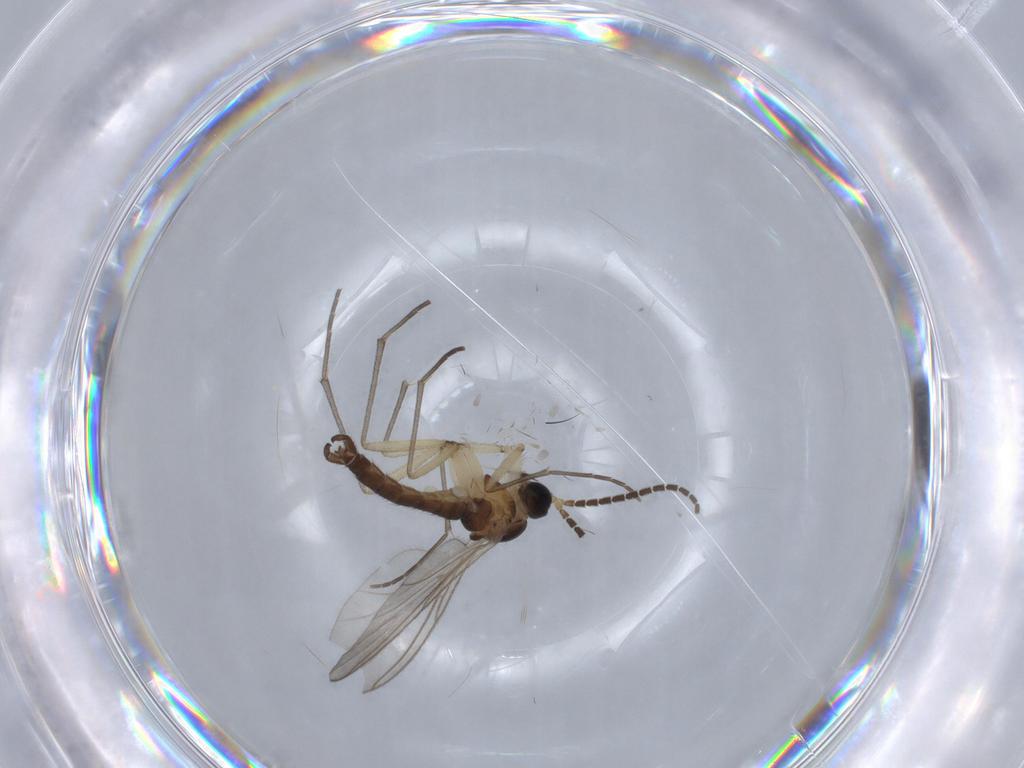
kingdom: Animalia
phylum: Arthropoda
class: Insecta
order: Diptera
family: Sciaridae
